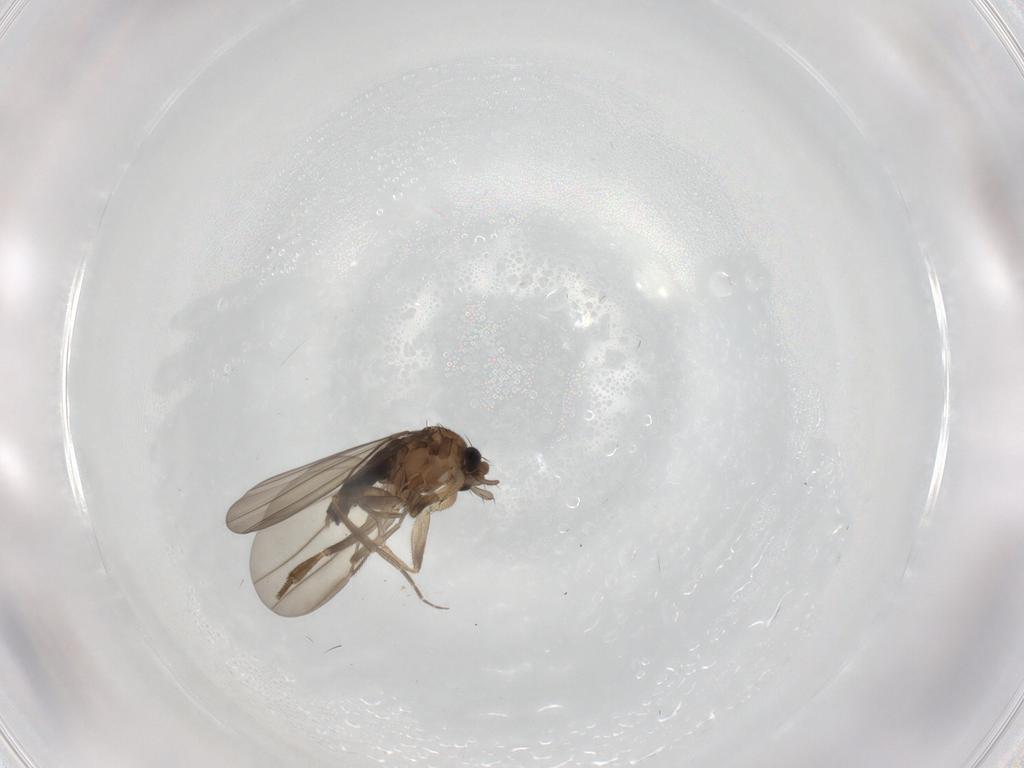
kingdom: Animalia
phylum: Arthropoda
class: Insecta
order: Diptera
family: Phoridae
